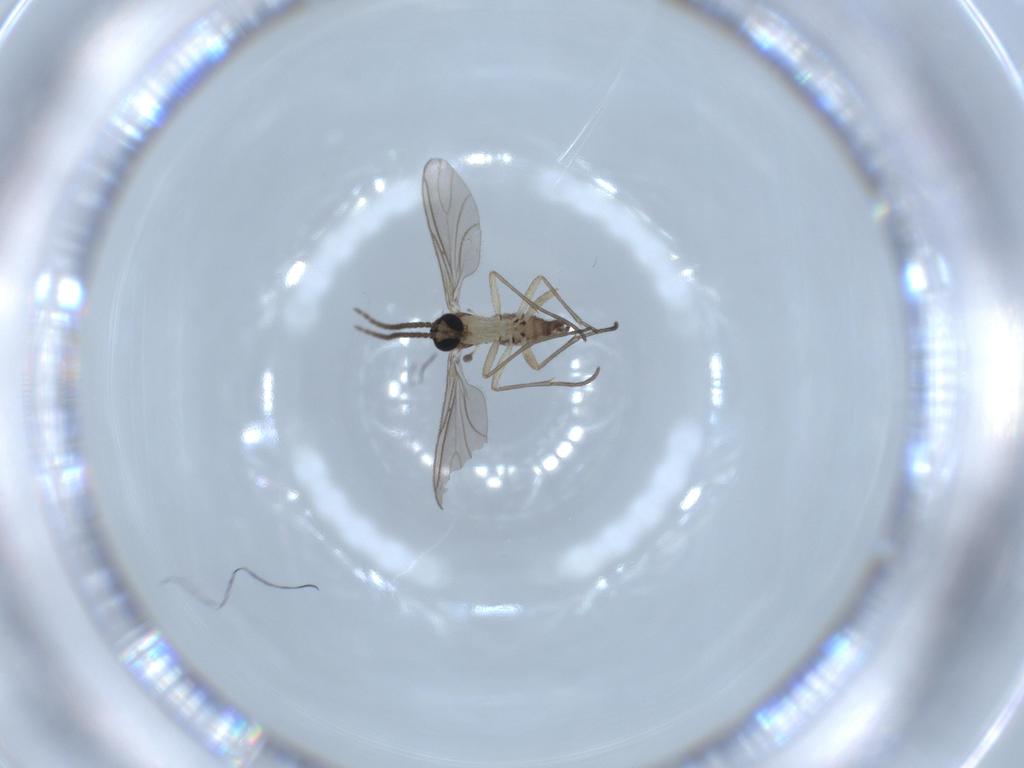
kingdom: Animalia
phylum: Arthropoda
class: Insecta
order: Diptera
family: Sciaridae
